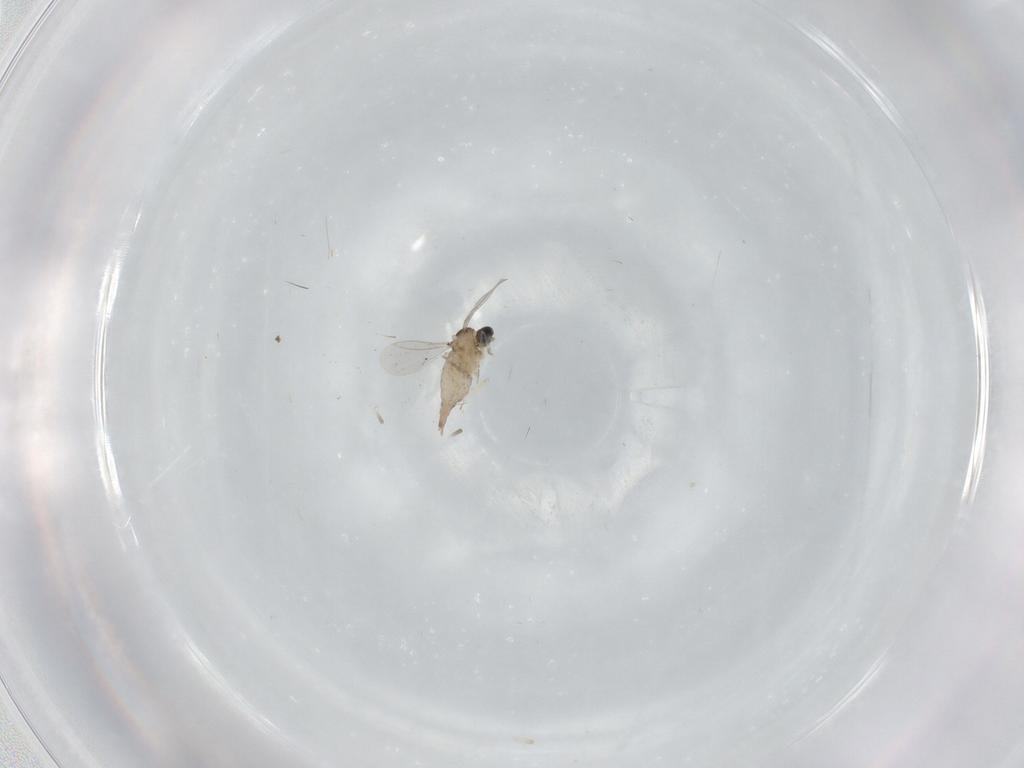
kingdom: Animalia
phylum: Arthropoda
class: Insecta
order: Diptera
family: Cecidomyiidae
